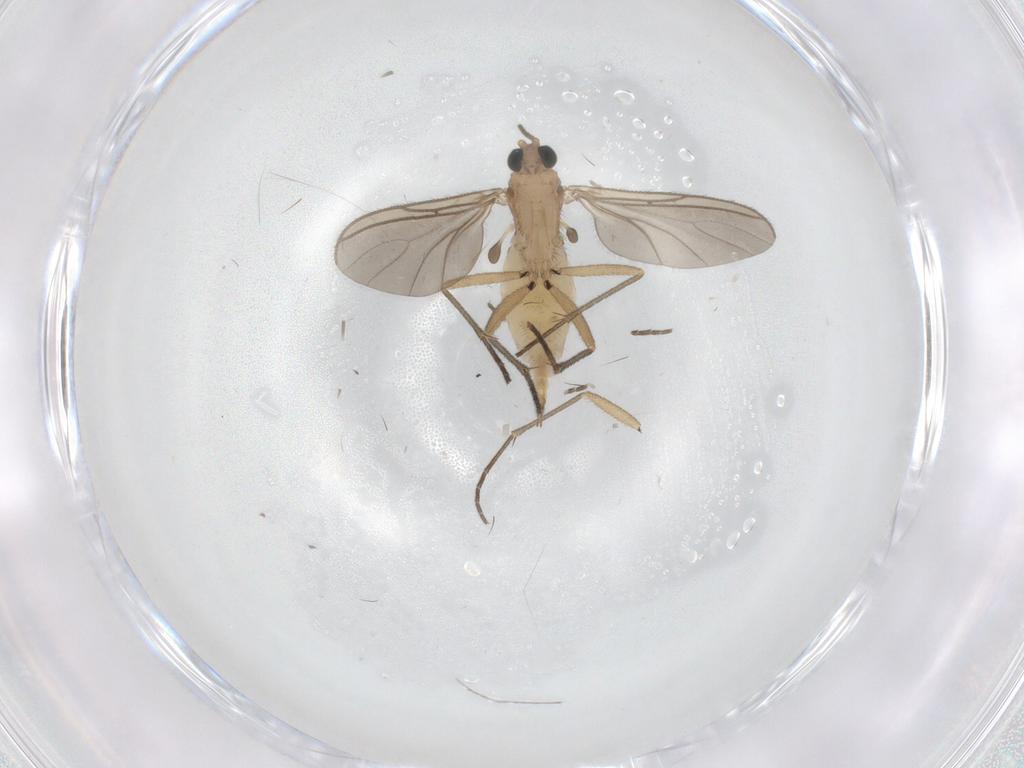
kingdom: Animalia
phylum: Arthropoda
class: Insecta
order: Diptera
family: Sciaridae
